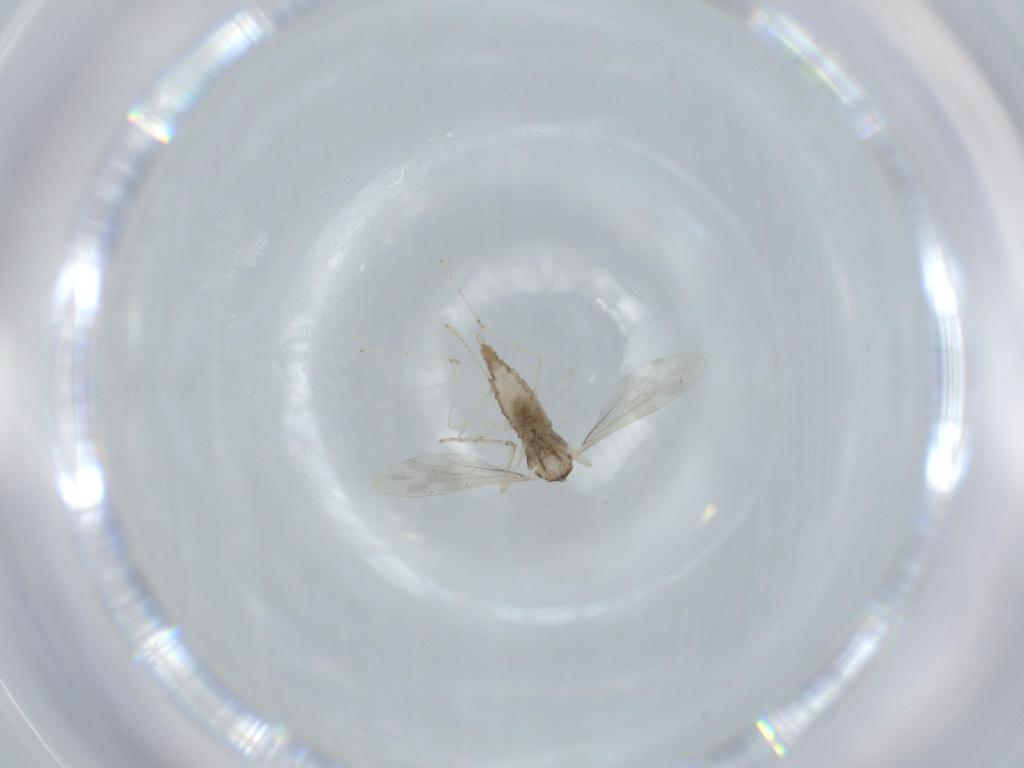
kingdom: Animalia
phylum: Arthropoda
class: Insecta
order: Diptera
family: Cecidomyiidae
